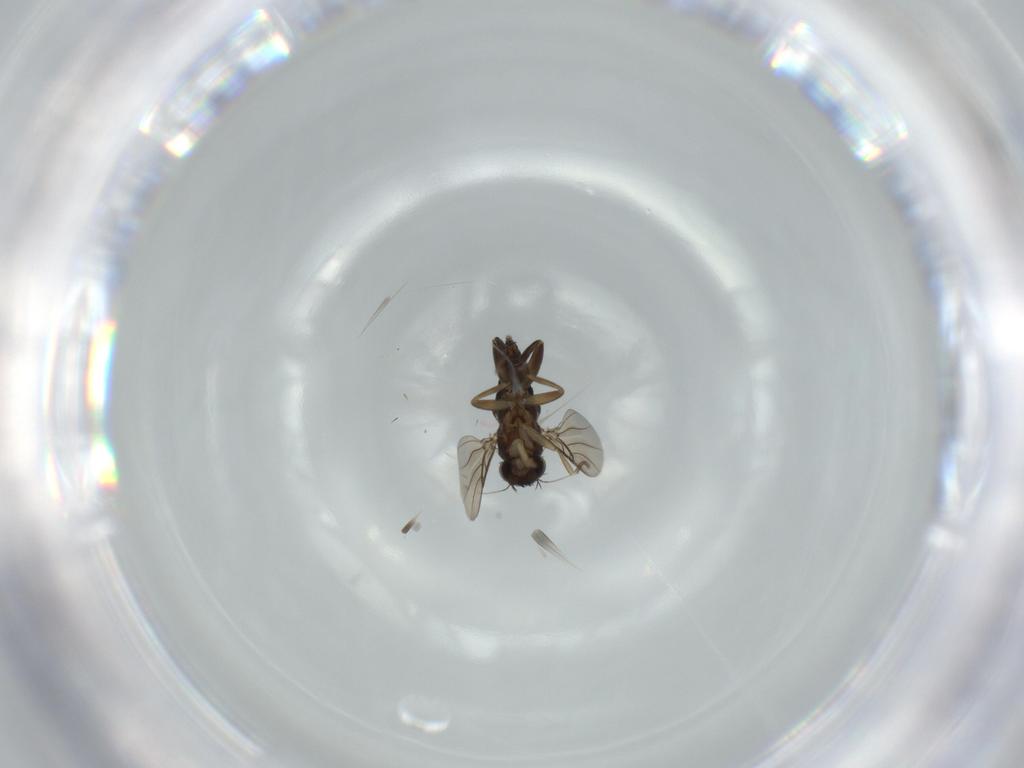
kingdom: Animalia
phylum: Arthropoda
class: Insecta
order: Diptera
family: Phoridae
